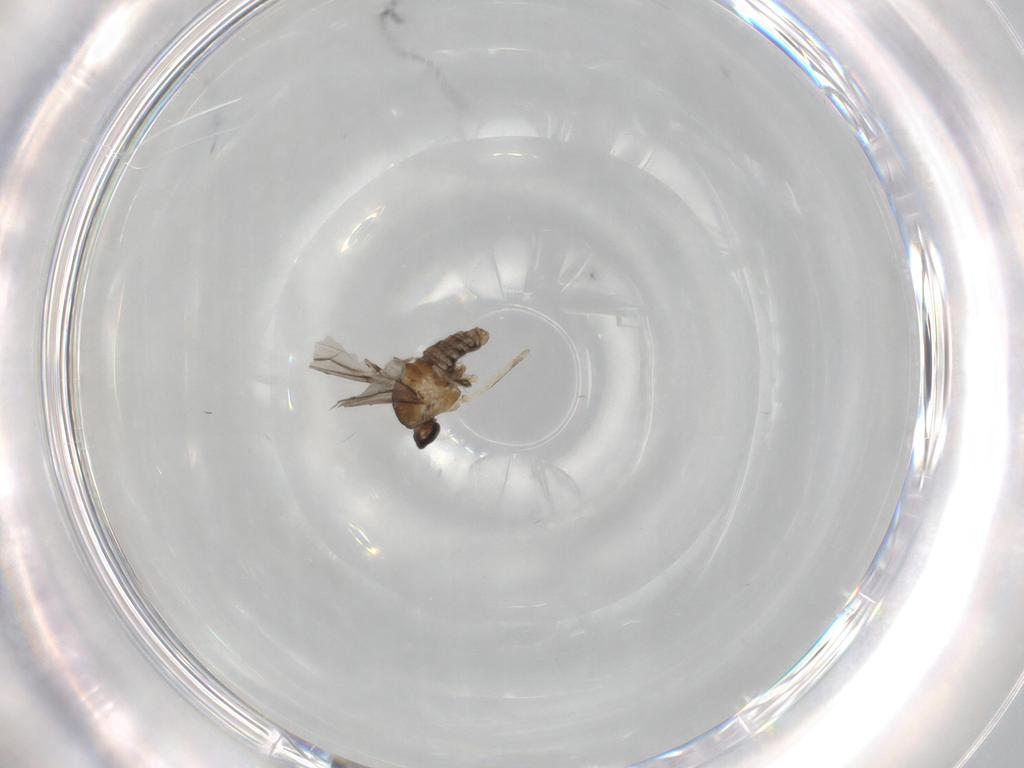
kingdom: Animalia
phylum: Arthropoda
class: Insecta
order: Diptera
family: Cecidomyiidae
